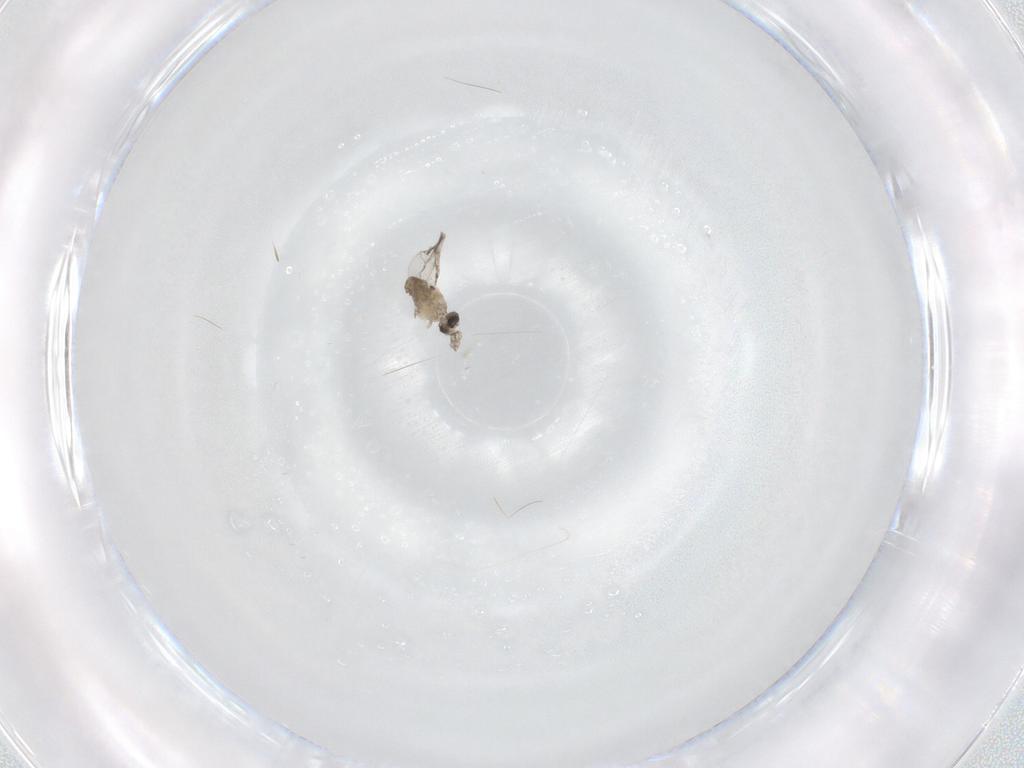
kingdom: Animalia
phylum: Arthropoda
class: Insecta
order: Diptera
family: Cecidomyiidae
